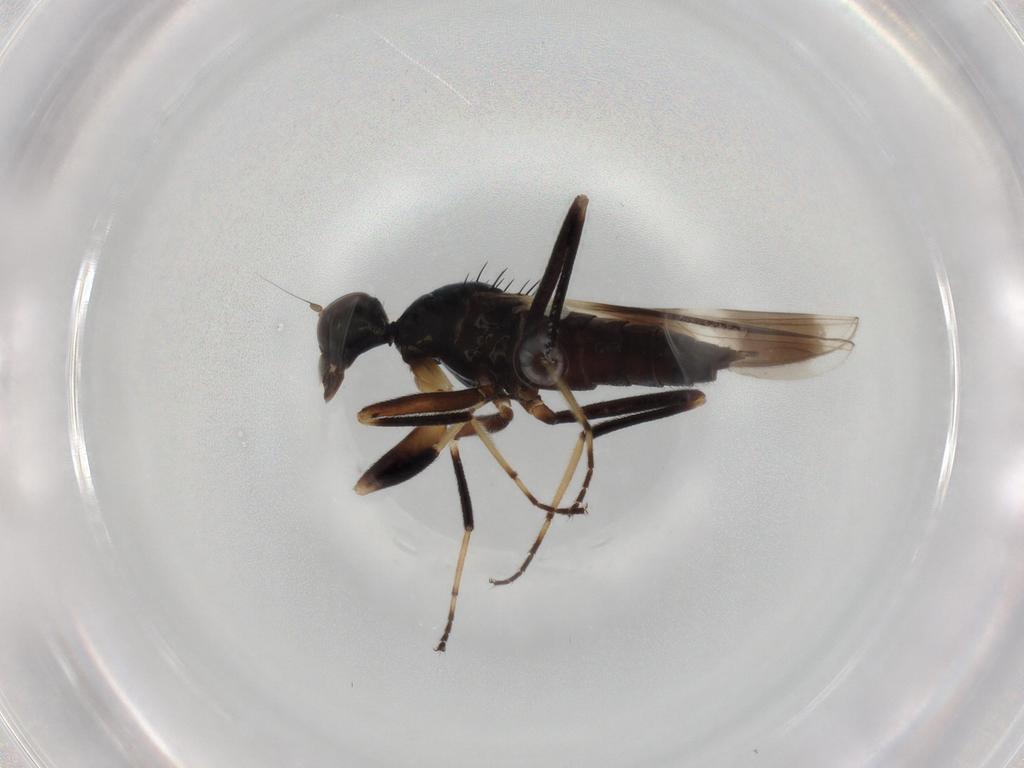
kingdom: Animalia
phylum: Arthropoda
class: Insecta
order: Diptera
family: Hybotidae
